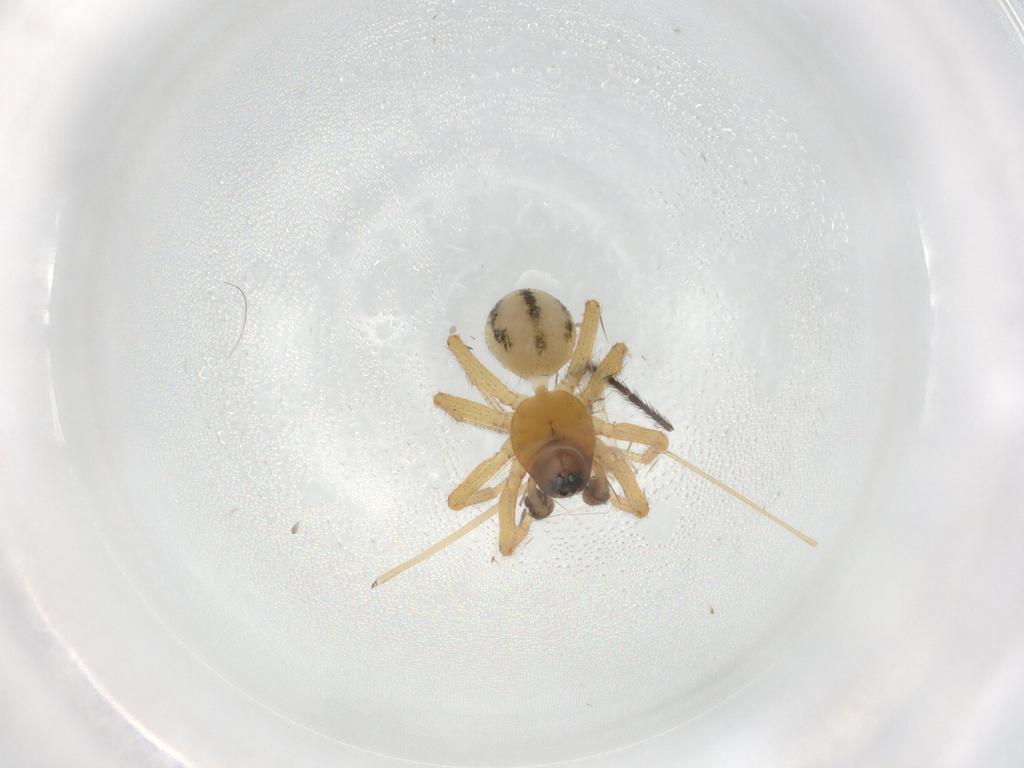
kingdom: Animalia
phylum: Arthropoda
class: Arachnida
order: Araneae
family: Linyphiidae
